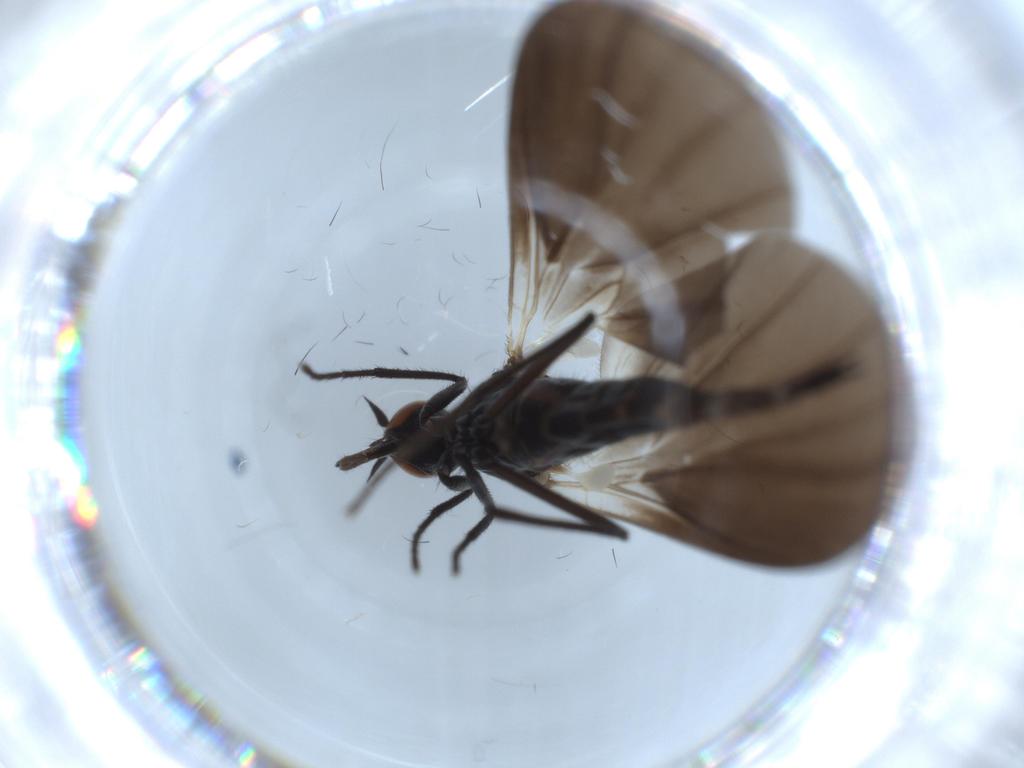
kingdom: Animalia
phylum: Arthropoda
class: Insecta
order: Diptera
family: Empididae
